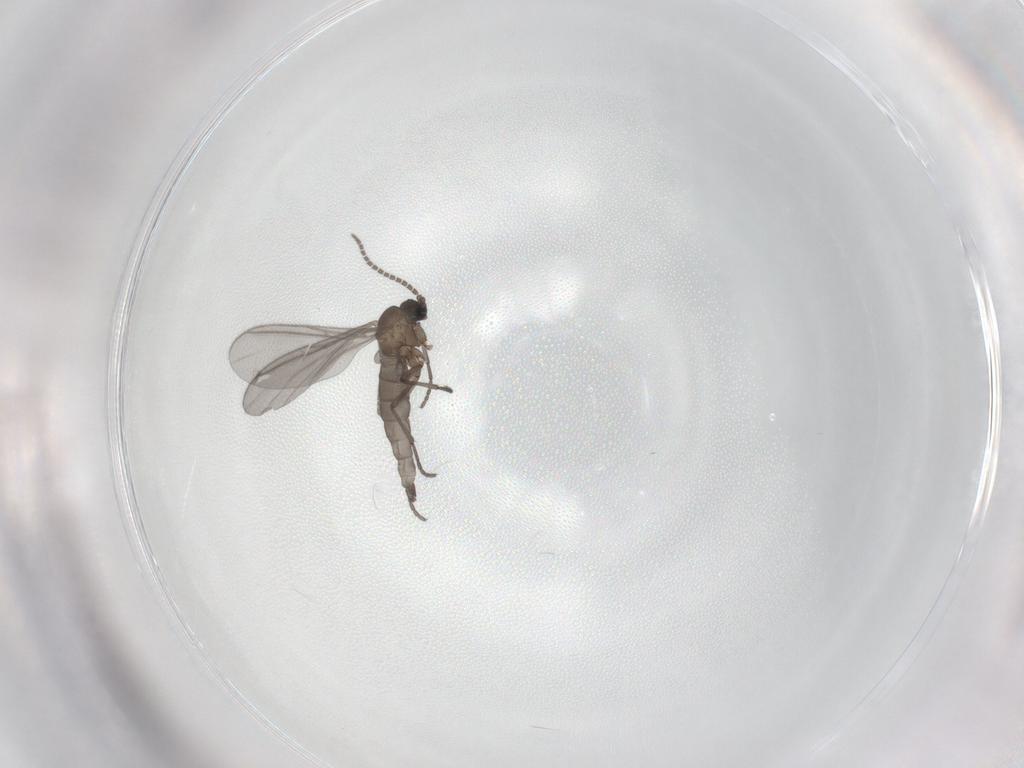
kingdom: Animalia
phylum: Arthropoda
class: Insecta
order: Diptera
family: Sciaridae
